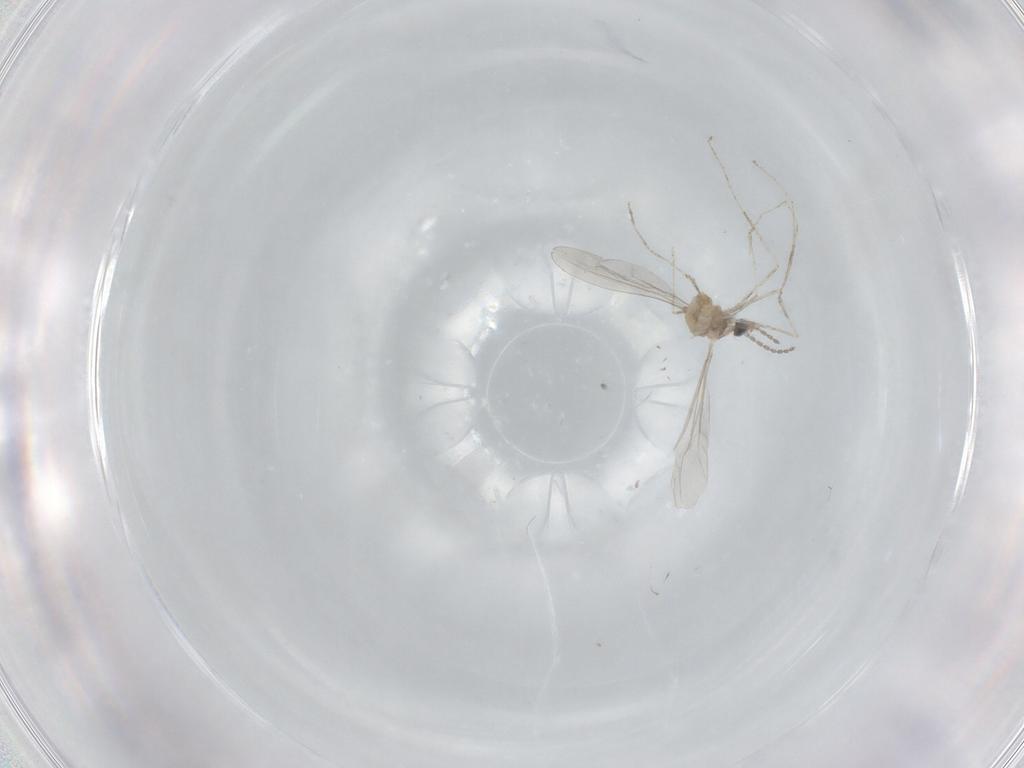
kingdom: Animalia
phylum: Arthropoda
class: Insecta
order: Diptera
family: Cecidomyiidae
